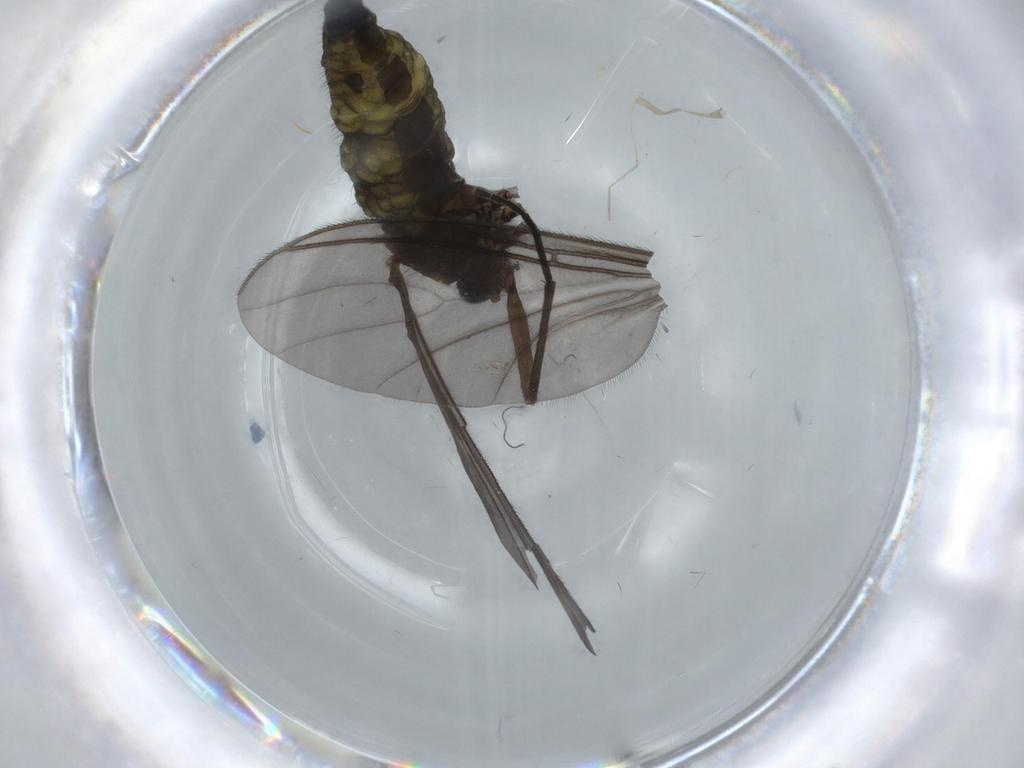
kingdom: Animalia
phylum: Arthropoda
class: Insecta
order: Diptera
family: Sciaridae
